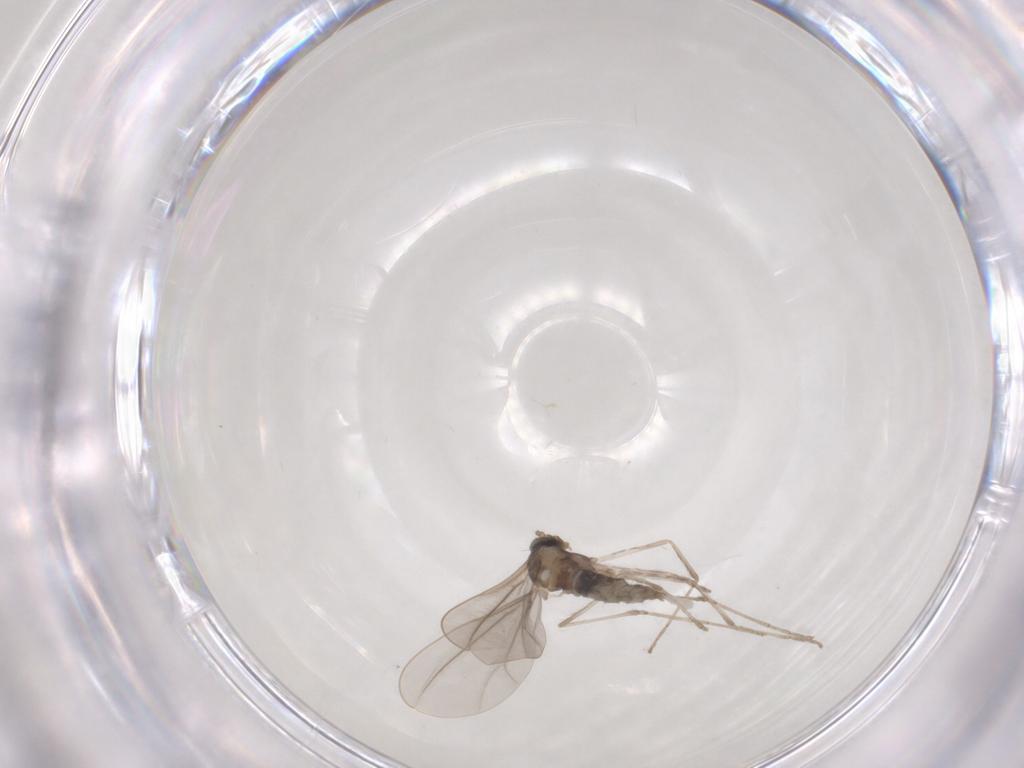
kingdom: Animalia
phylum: Arthropoda
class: Insecta
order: Diptera
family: Cecidomyiidae
